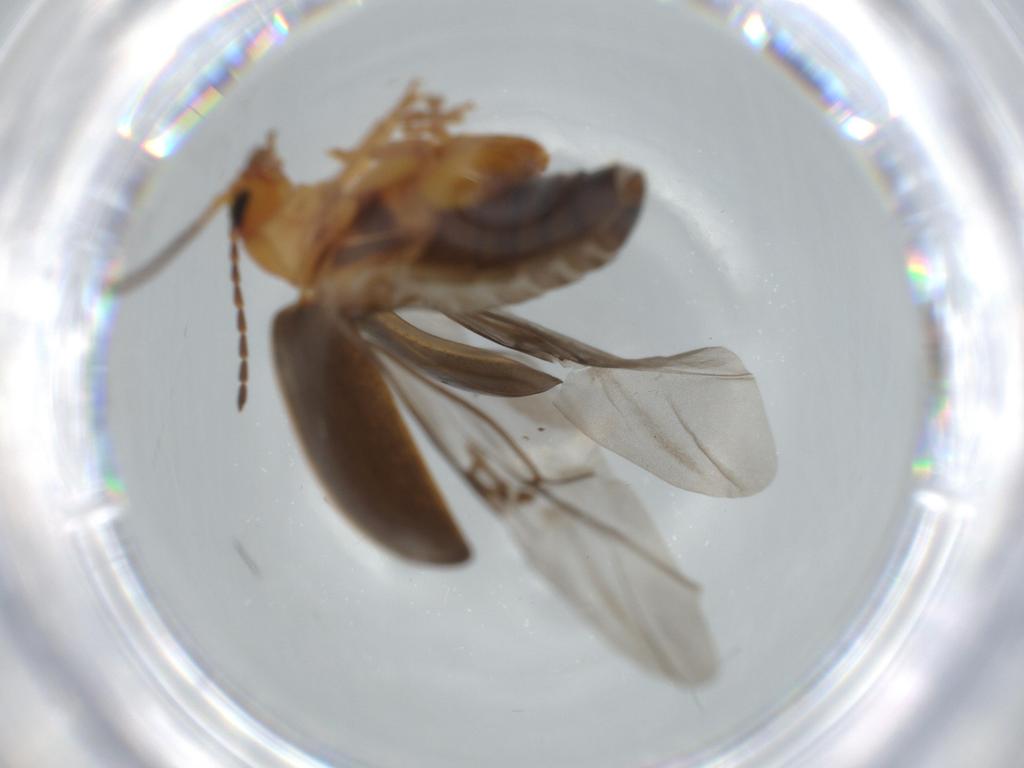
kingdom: Animalia
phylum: Arthropoda
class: Insecta
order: Coleoptera
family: Chrysomelidae
